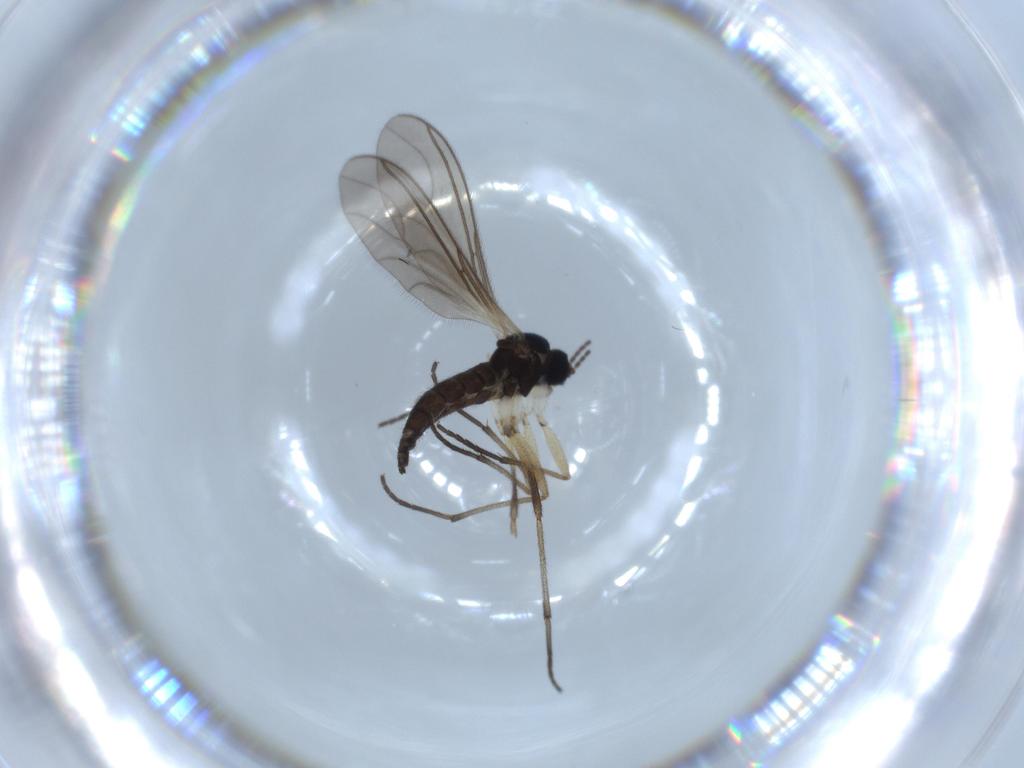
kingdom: Animalia
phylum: Arthropoda
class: Insecta
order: Diptera
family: Sciaridae
